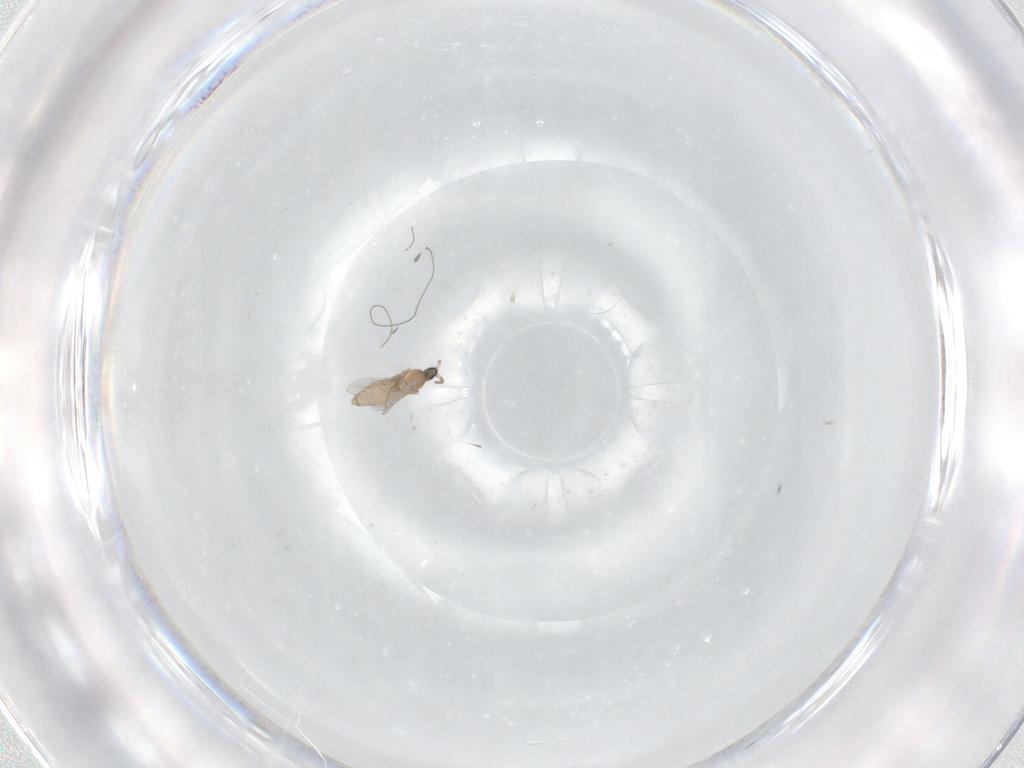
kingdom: Animalia
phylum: Arthropoda
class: Insecta
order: Diptera
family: Cecidomyiidae
